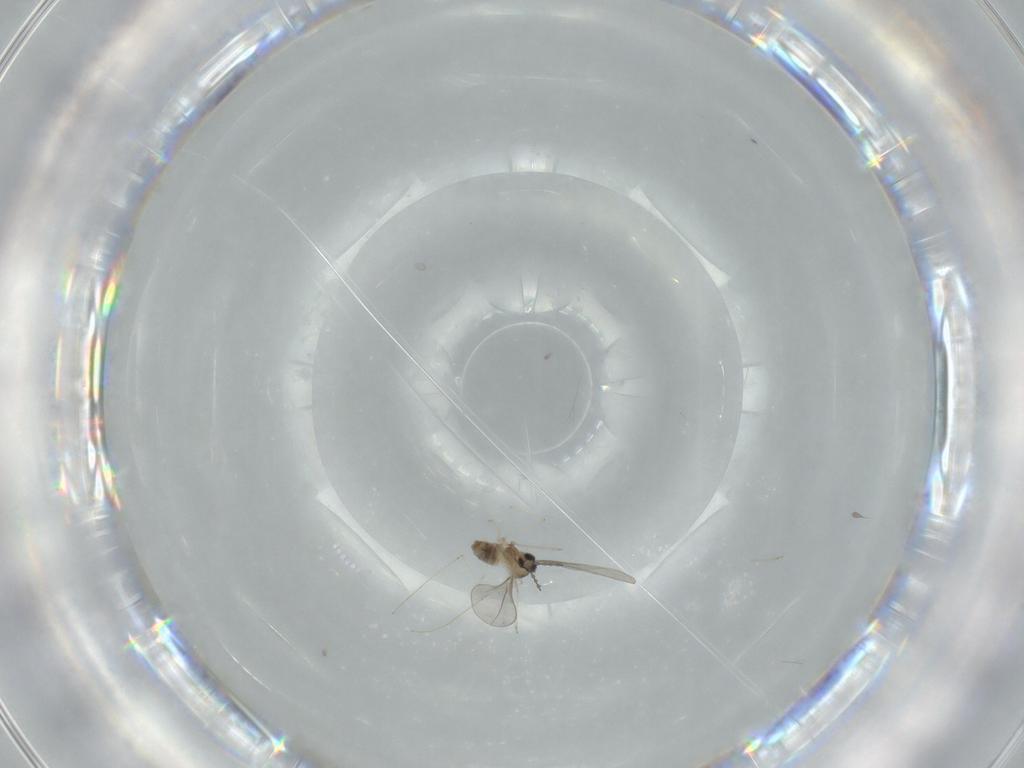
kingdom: Animalia
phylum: Arthropoda
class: Insecta
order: Diptera
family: Cecidomyiidae
